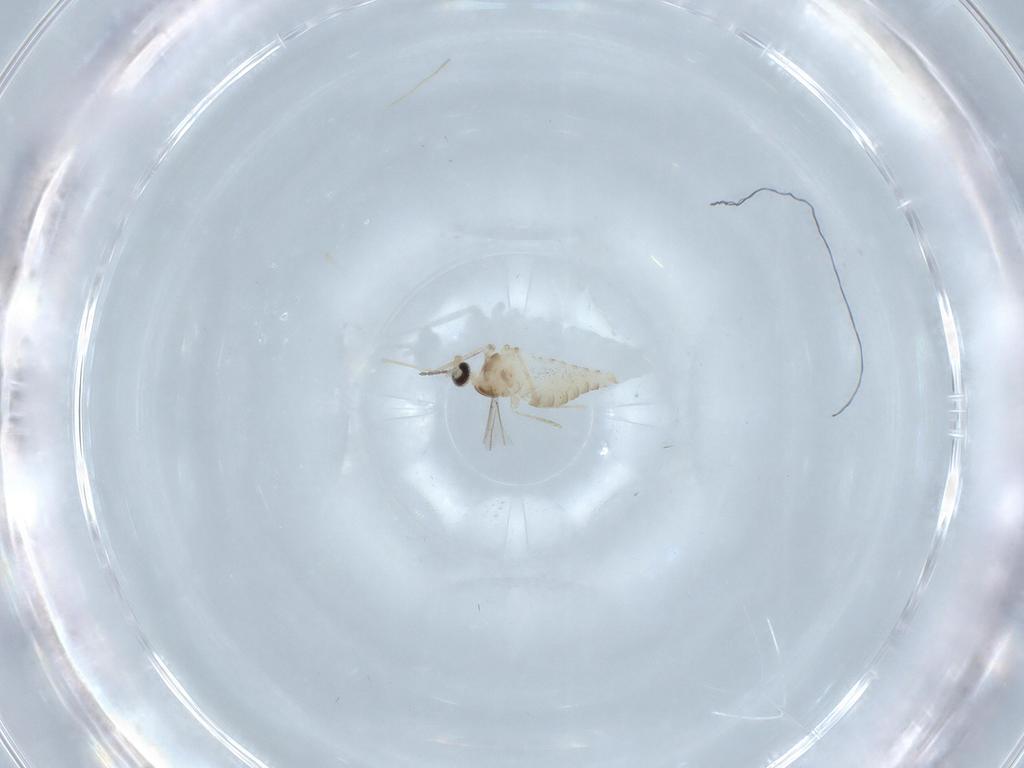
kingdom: Animalia
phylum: Arthropoda
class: Insecta
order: Diptera
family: Cecidomyiidae
